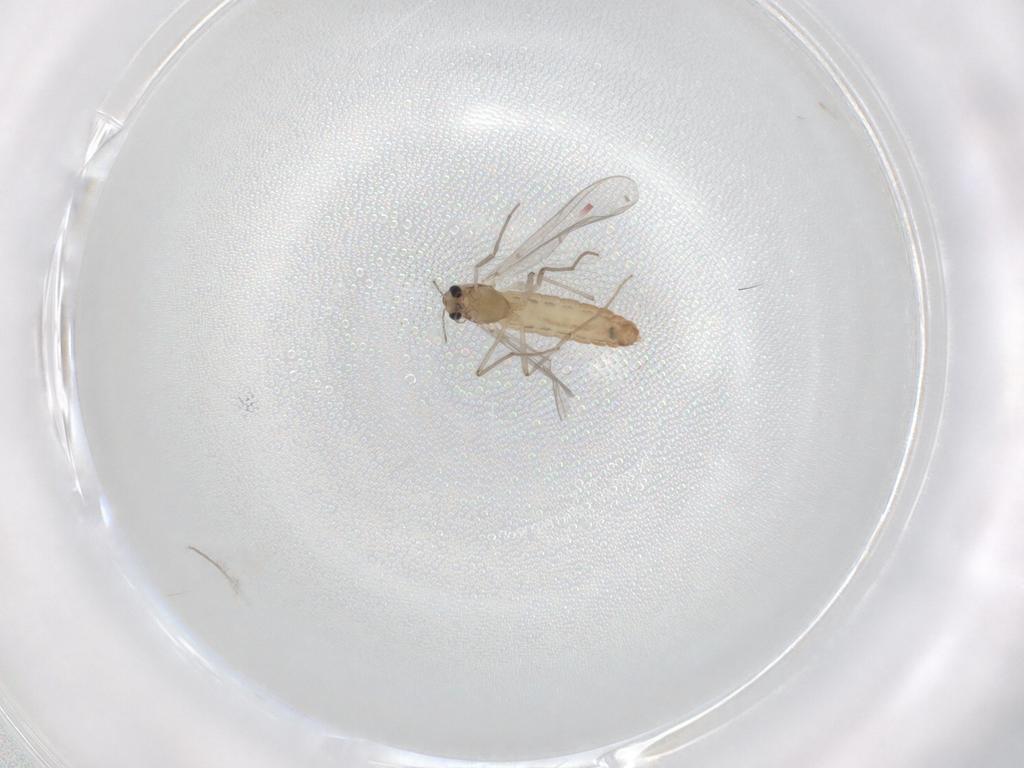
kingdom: Animalia
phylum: Arthropoda
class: Insecta
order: Diptera
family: Chironomidae
